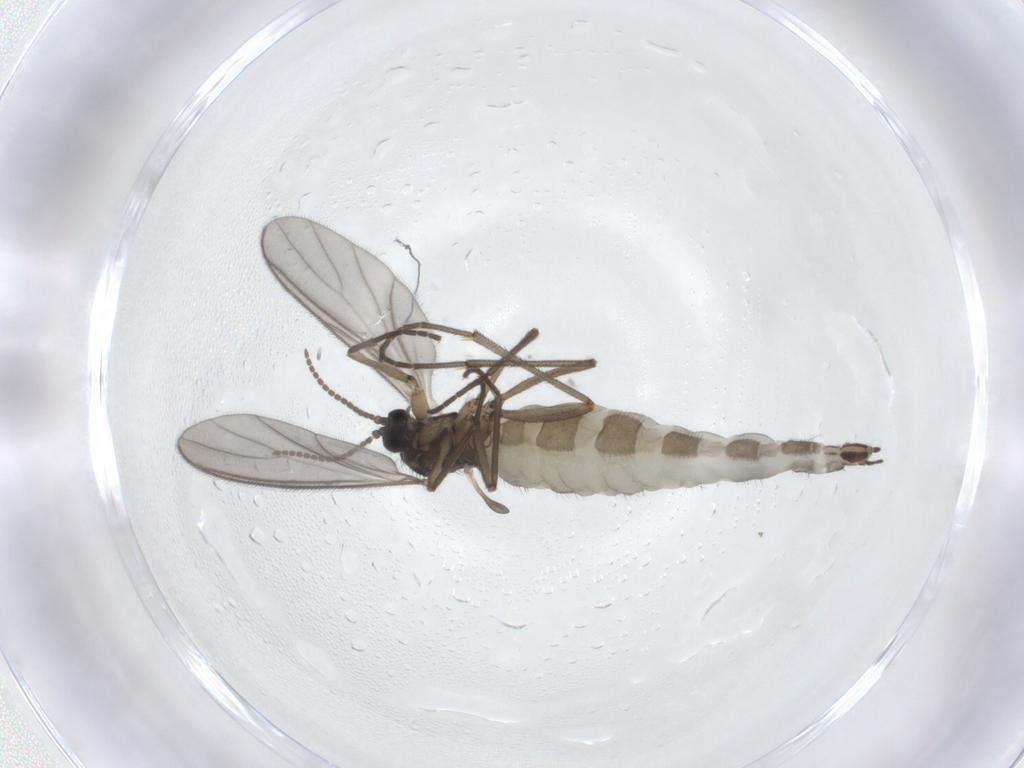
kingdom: Animalia
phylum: Arthropoda
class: Insecta
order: Diptera
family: Sciaridae
